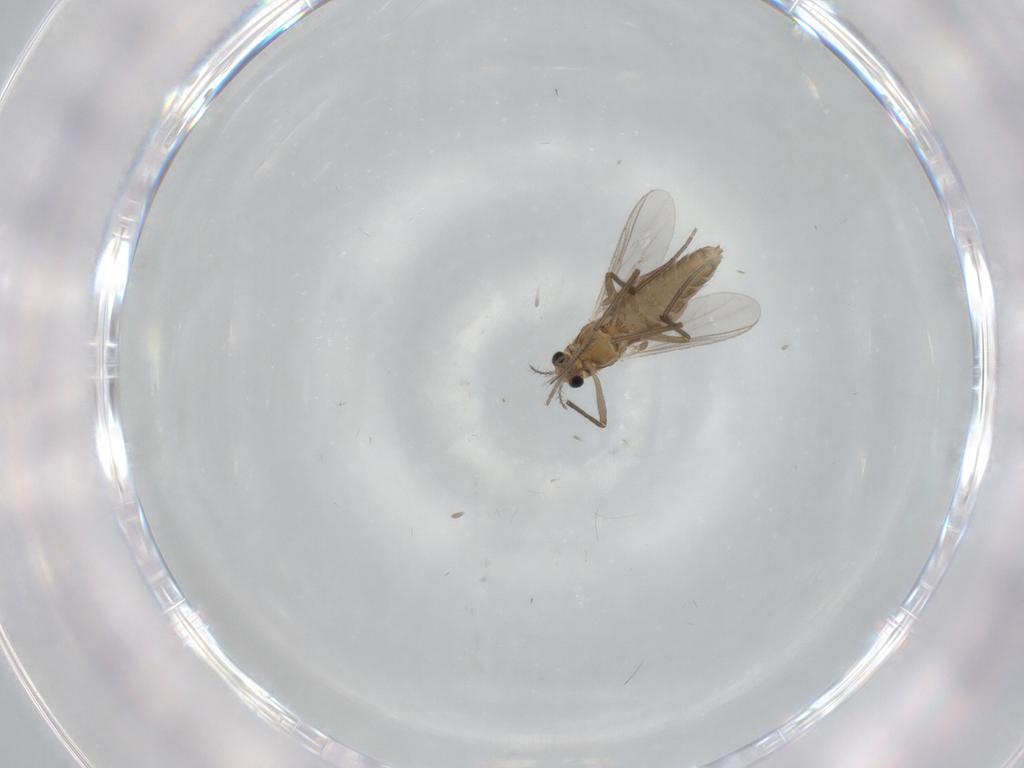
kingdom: Animalia
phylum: Arthropoda
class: Insecta
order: Diptera
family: Chironomidae
